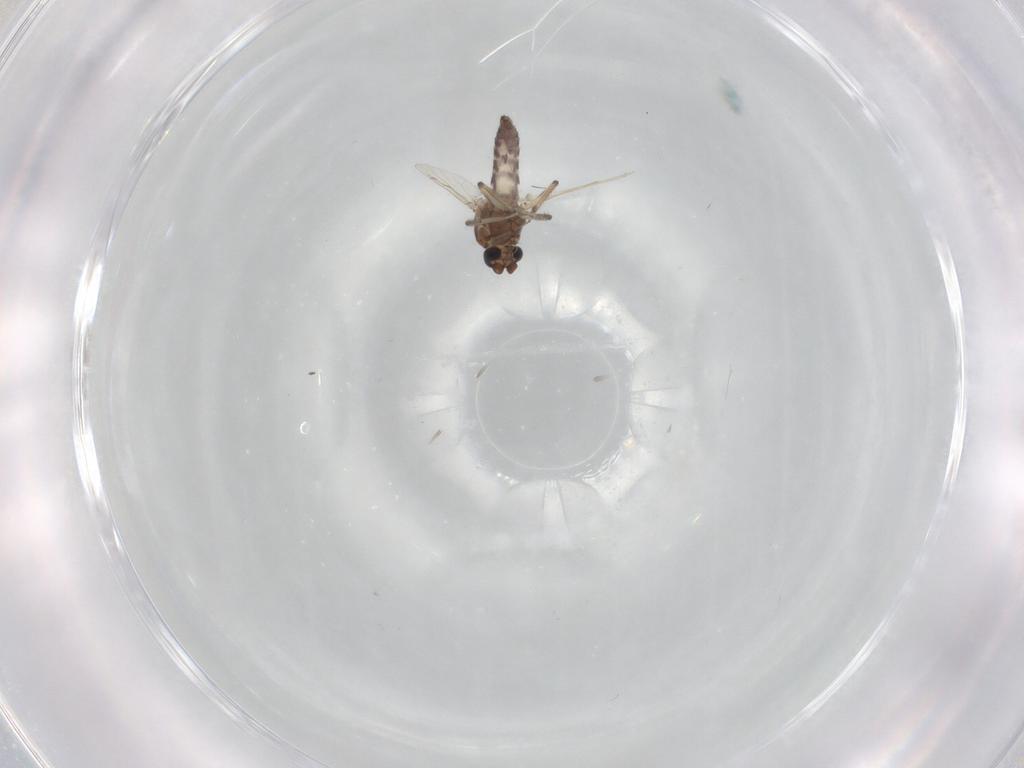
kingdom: Animalia
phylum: Arthropoda
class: Insecta
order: Diptera
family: Ceratopogonidae
